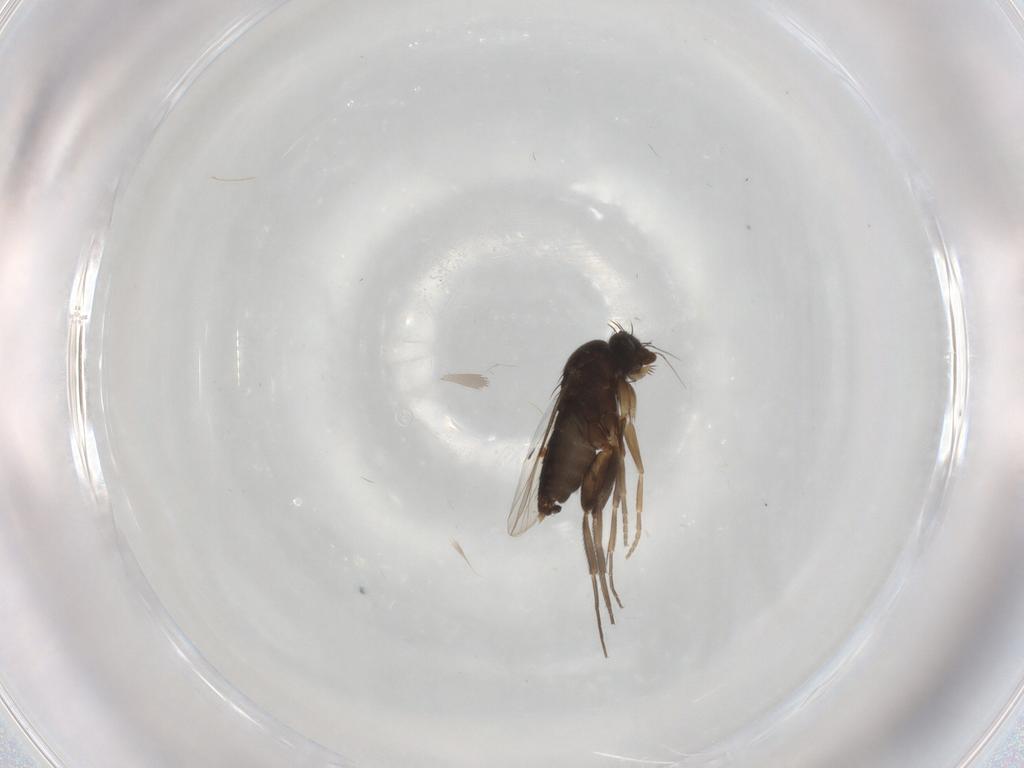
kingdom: Animalia
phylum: Arthropoda
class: Insecta
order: Diptera
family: Phoridae
